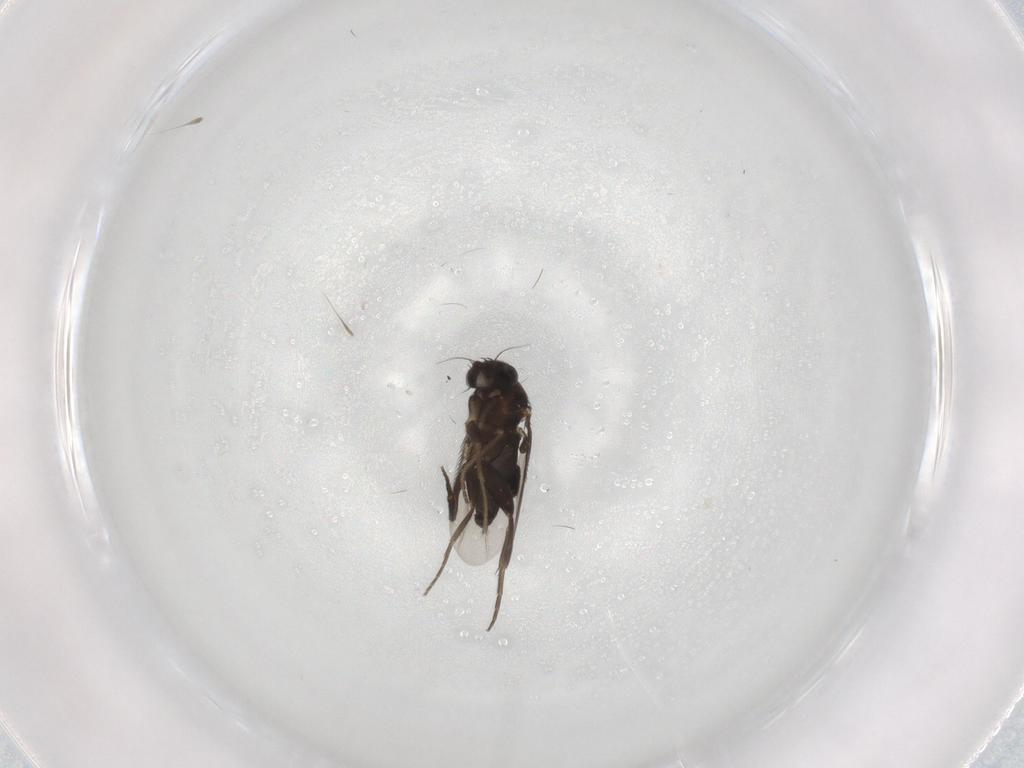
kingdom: Animalia
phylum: Arthropoda
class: Insecta
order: Diptera
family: Phoridae
